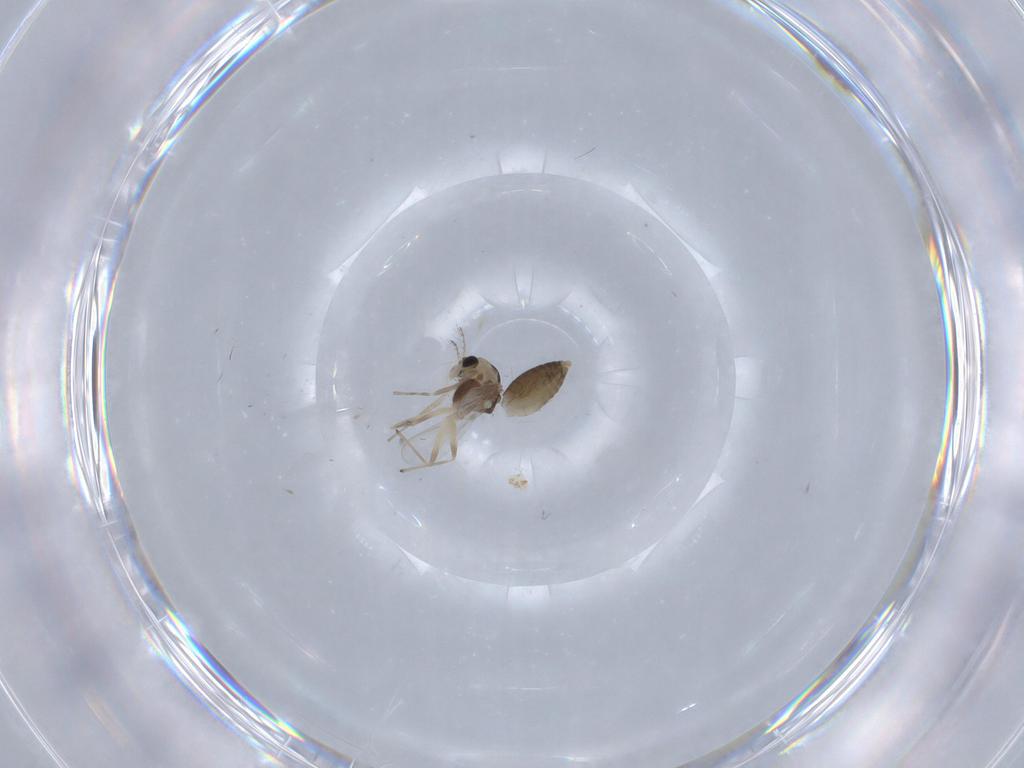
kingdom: Animalia
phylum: Arthropoda
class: Insecta
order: Diptera
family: Chironomidae
